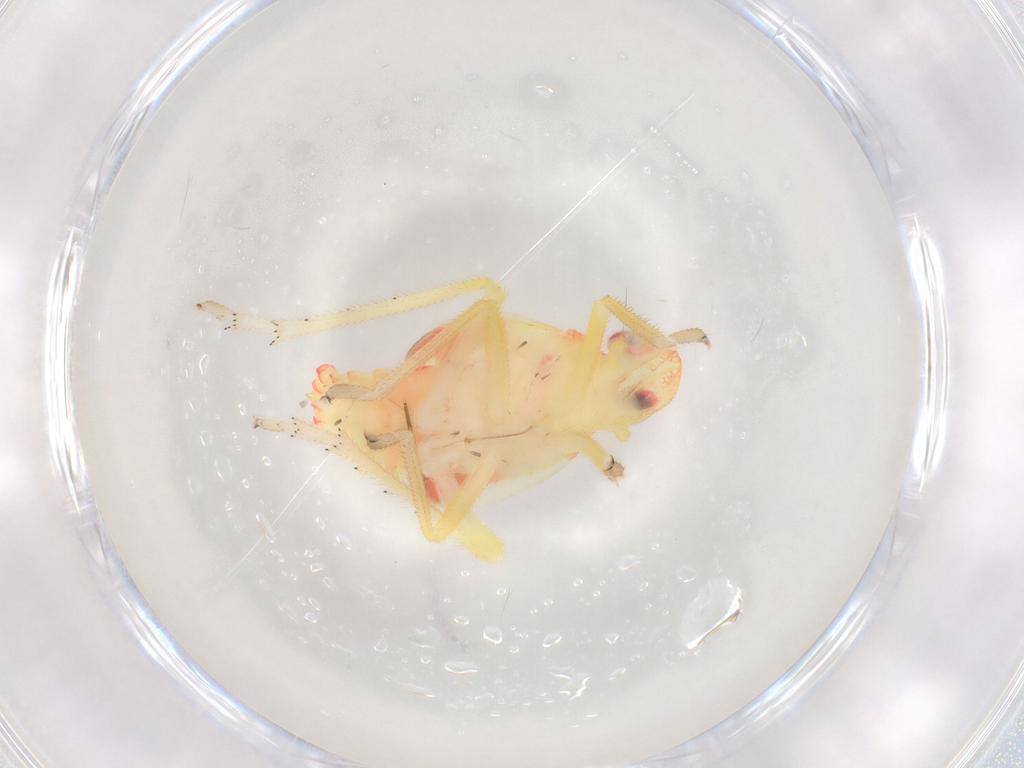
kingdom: Animalia
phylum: Arthropoda
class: Insecta
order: Hemiptera
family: Tropiduchidae
